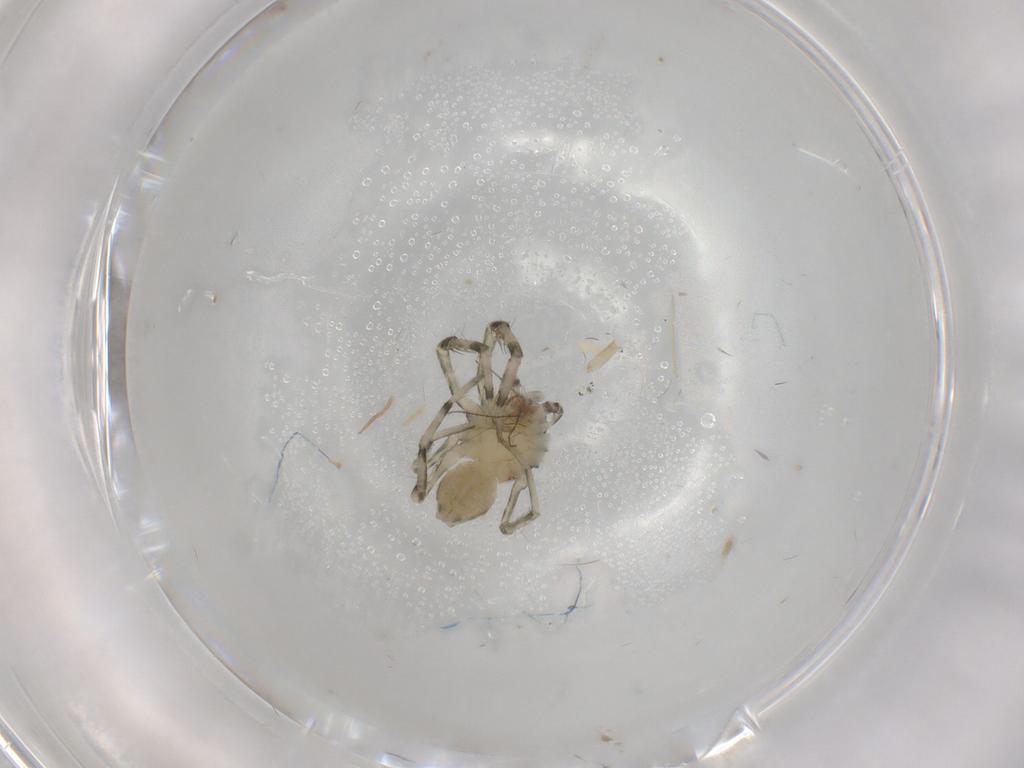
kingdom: Animalia
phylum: Arthropoda
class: Arachnida
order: Araneae
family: Senoculidae
